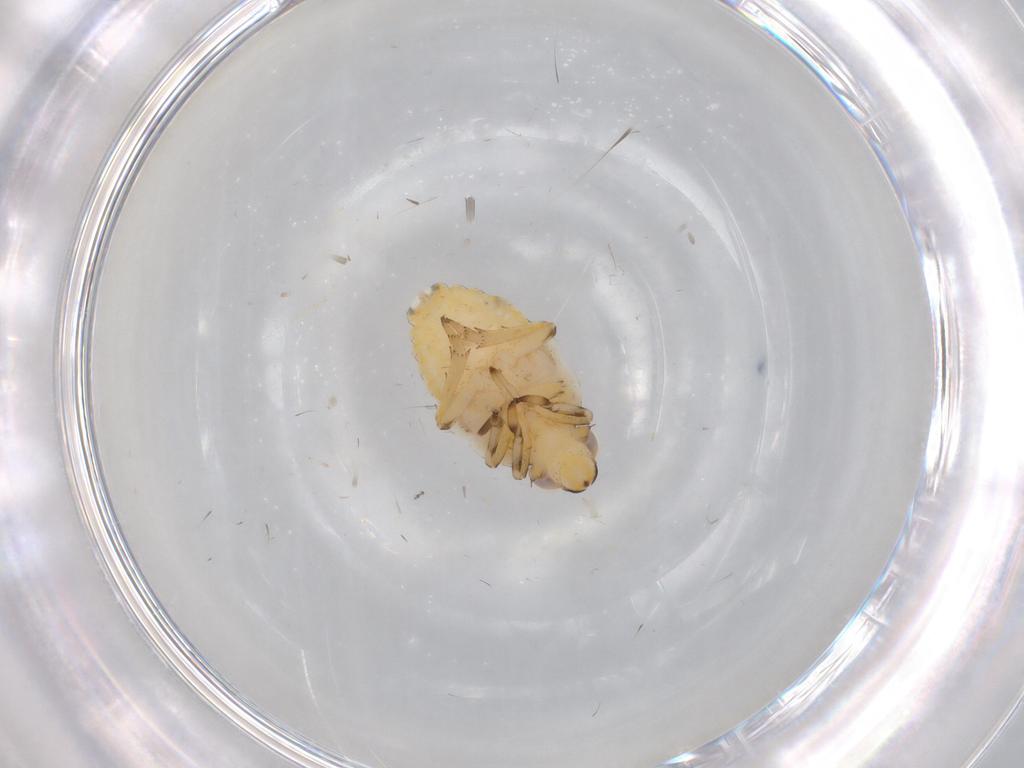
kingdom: Animalia
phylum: Arthropoda
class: Insecta
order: Hemiptera
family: Issidae
